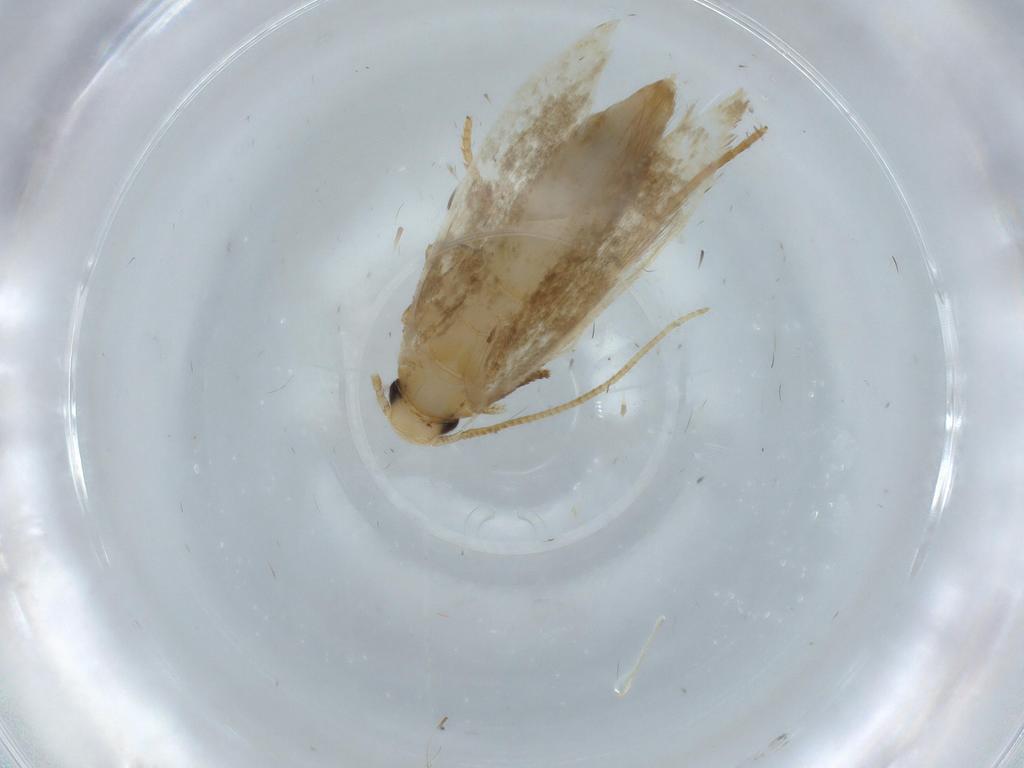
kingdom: Animalia
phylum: Arthropoda
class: Insecta
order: Lepidoptera
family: Tineidae
